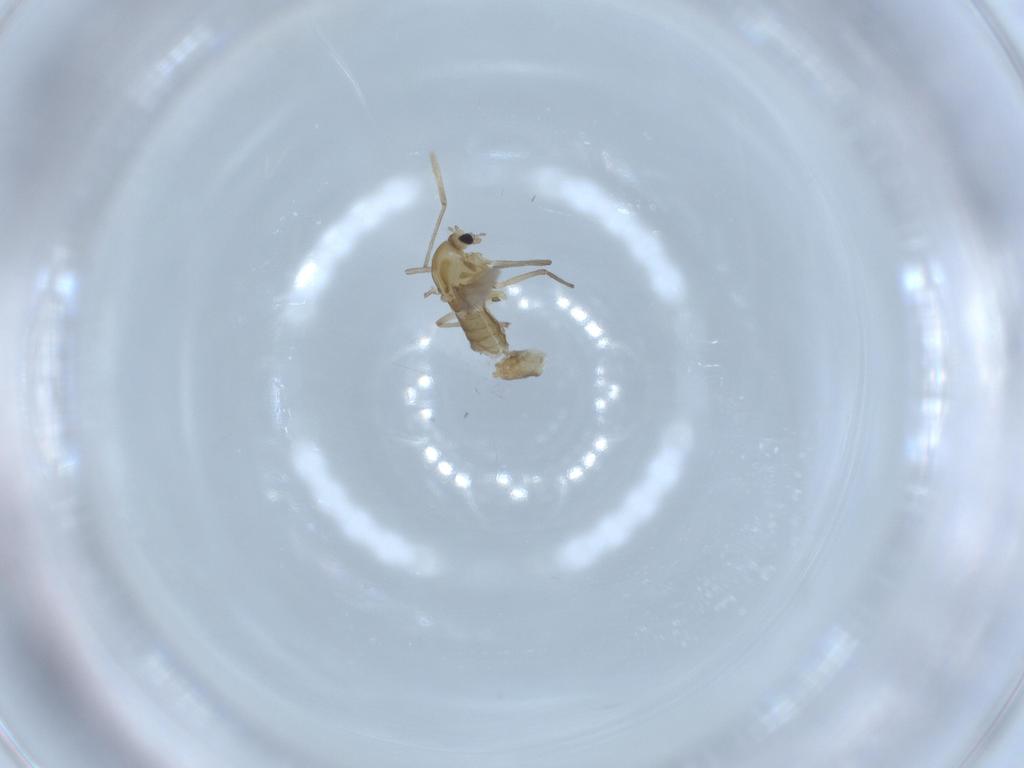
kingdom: Animalia
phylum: Arthropoda
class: Insecta
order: Diptera
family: Chironomidae
